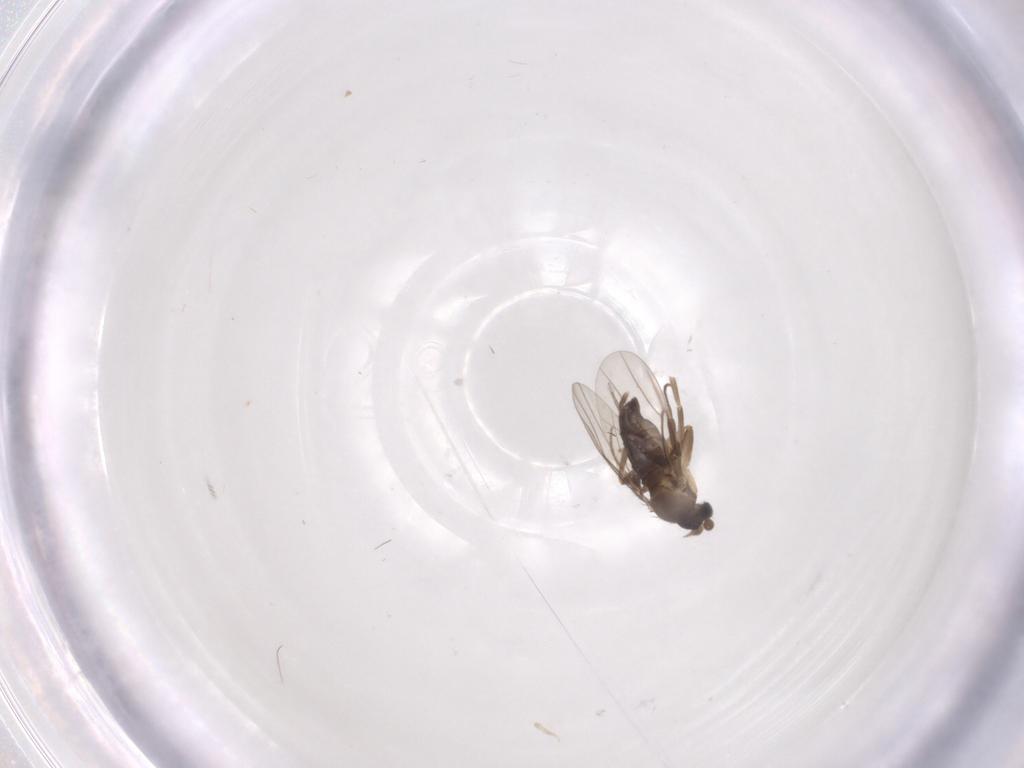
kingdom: Animalia
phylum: Arthropoda
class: Insecta
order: Diptera
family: Phoridae
